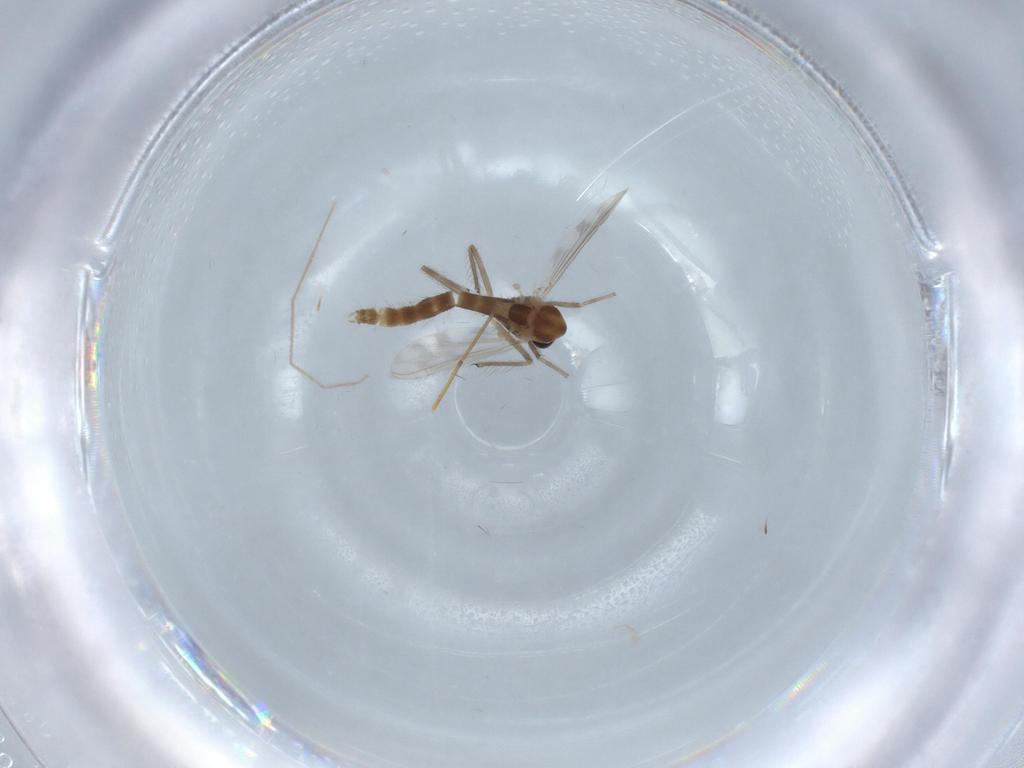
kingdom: Animalia
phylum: Arthropoda
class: Insecta
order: Diptera
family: Chironomidae
